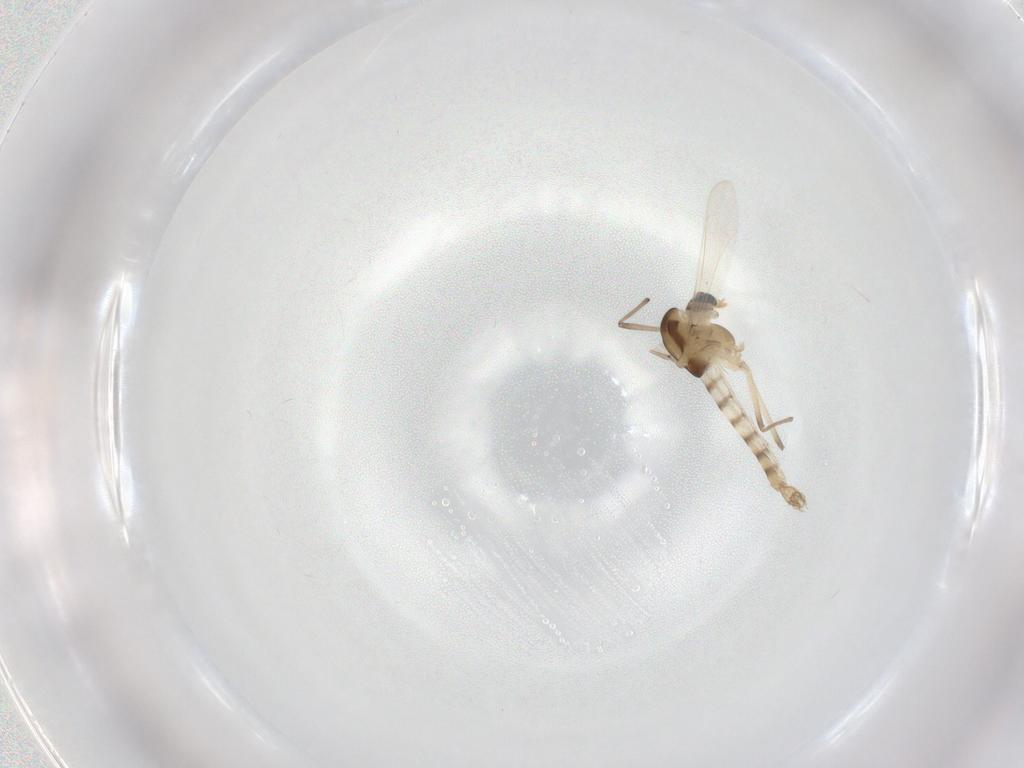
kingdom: Animalia
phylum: Arthropoda
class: Insecta
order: Diptera
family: Chironomidae
